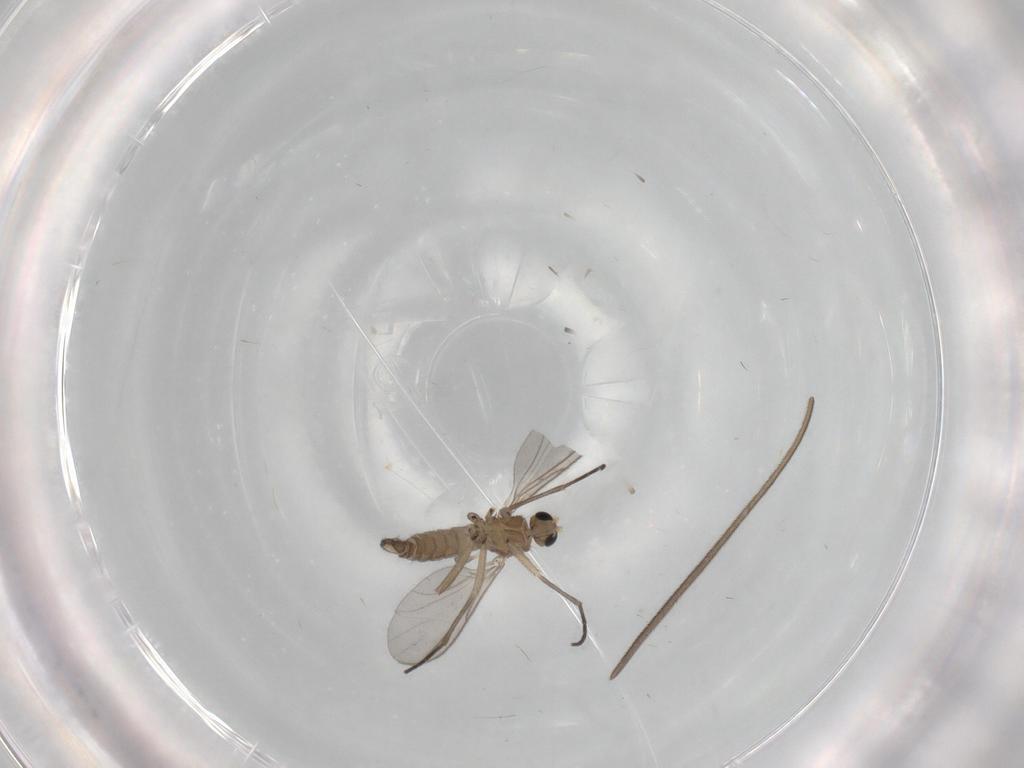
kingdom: Animalia
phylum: Arthropoda
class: Insecta
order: Diptera
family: Sciaridae
